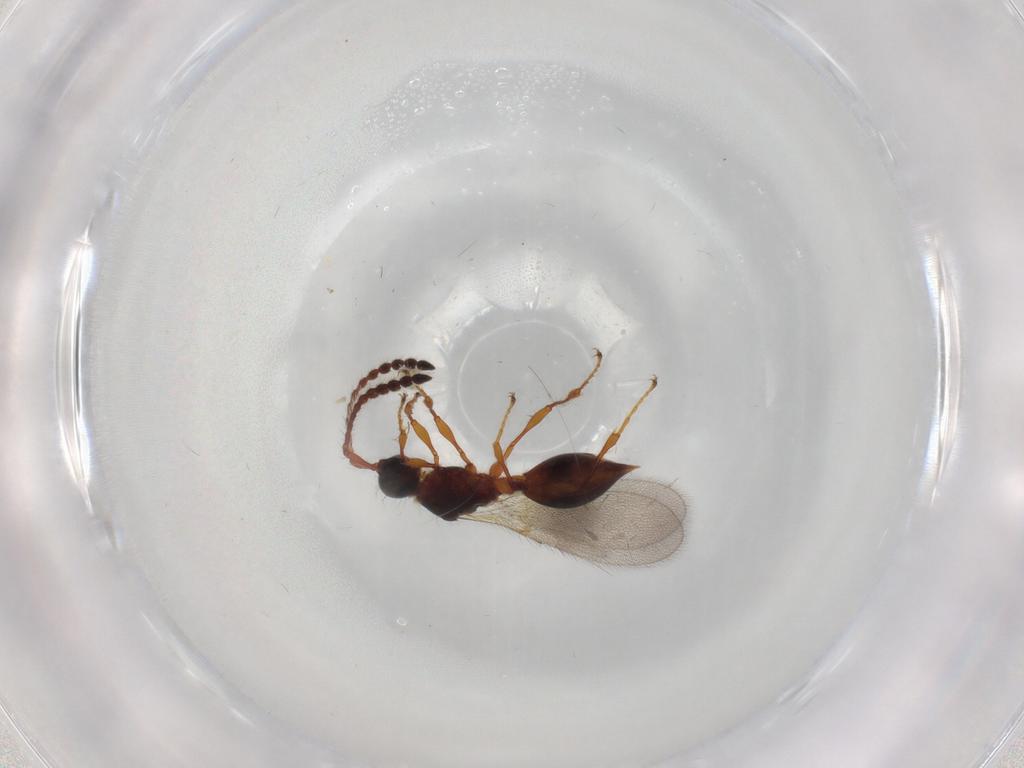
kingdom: Animalia
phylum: Arthropoda
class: Insecta
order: Hymenoptera
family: Diapriidae
